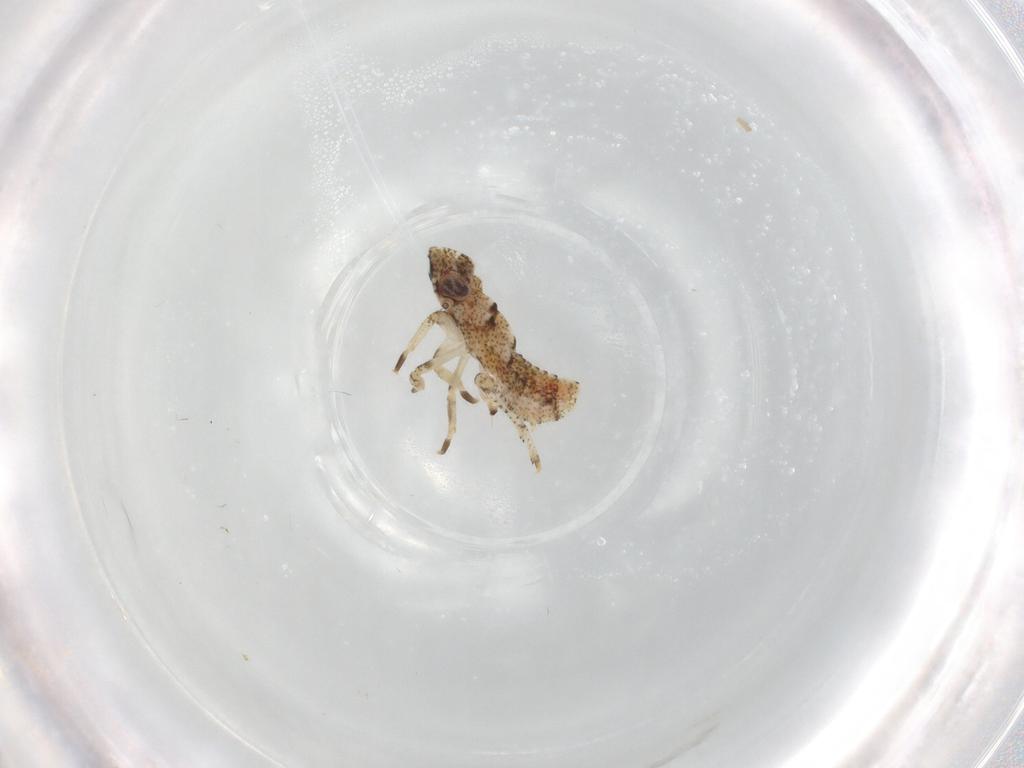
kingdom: Animalia
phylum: Arthropoda
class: Insecta
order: Hemiptera
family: Gengidae
